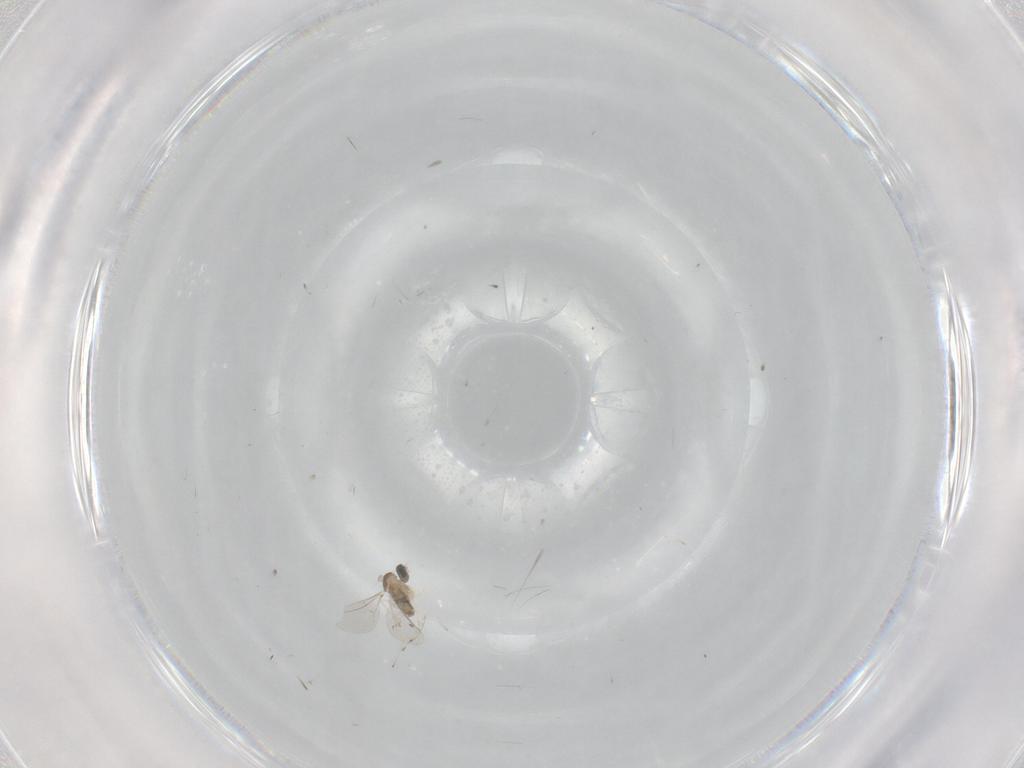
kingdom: Animalia
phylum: Arthropoda
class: Insecta
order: Diptera
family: Cecidomyiidae
